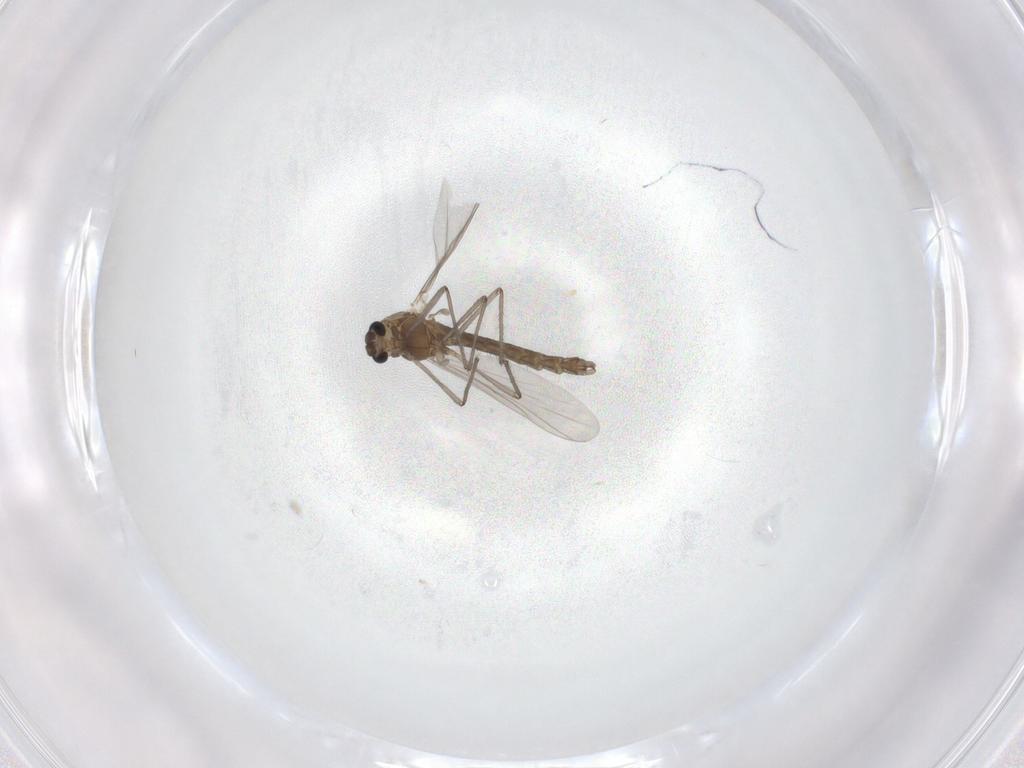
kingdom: Animalia
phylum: Arthropoda
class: Insecta
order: Diptera
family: Chironomidae
